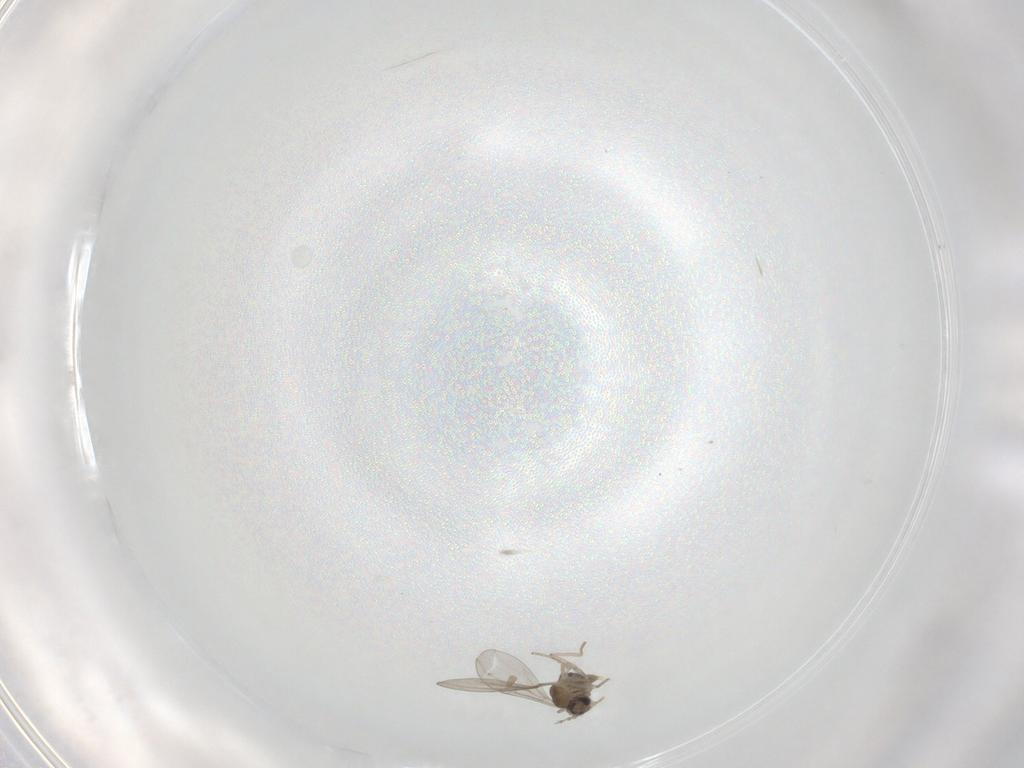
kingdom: Animalia
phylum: Arthropoda
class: Insecta
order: Diptera
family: Cecidomyiidae
